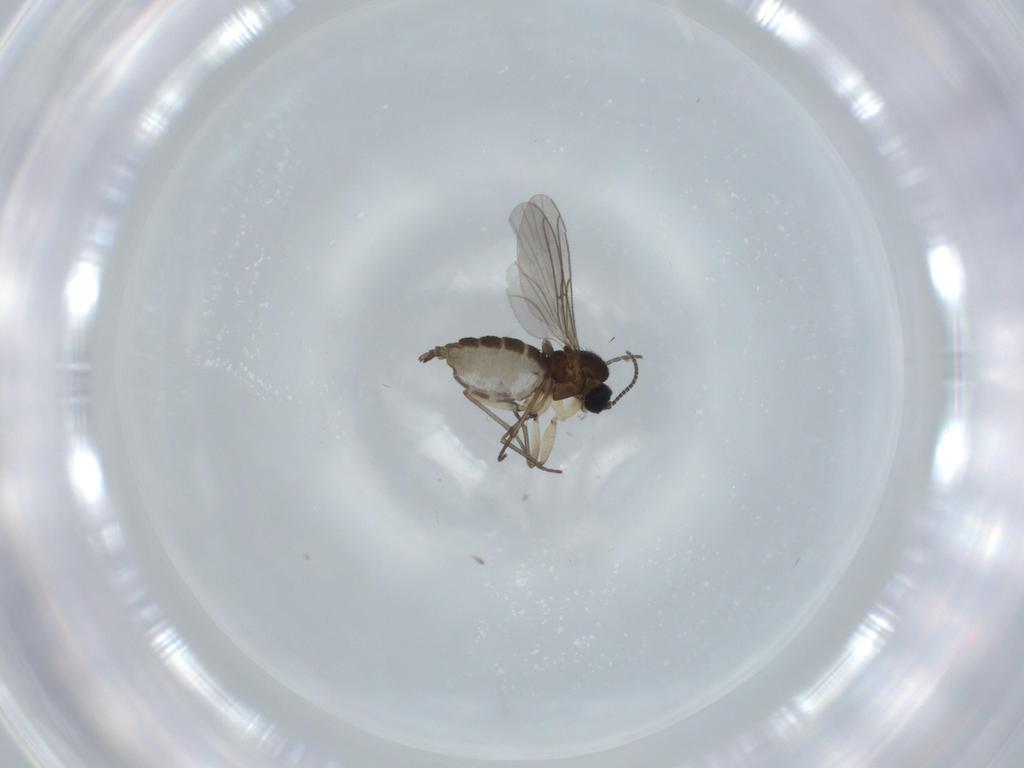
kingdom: Animalia
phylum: Arthropoda
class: Insecta
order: Diptera
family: Sciaridae
